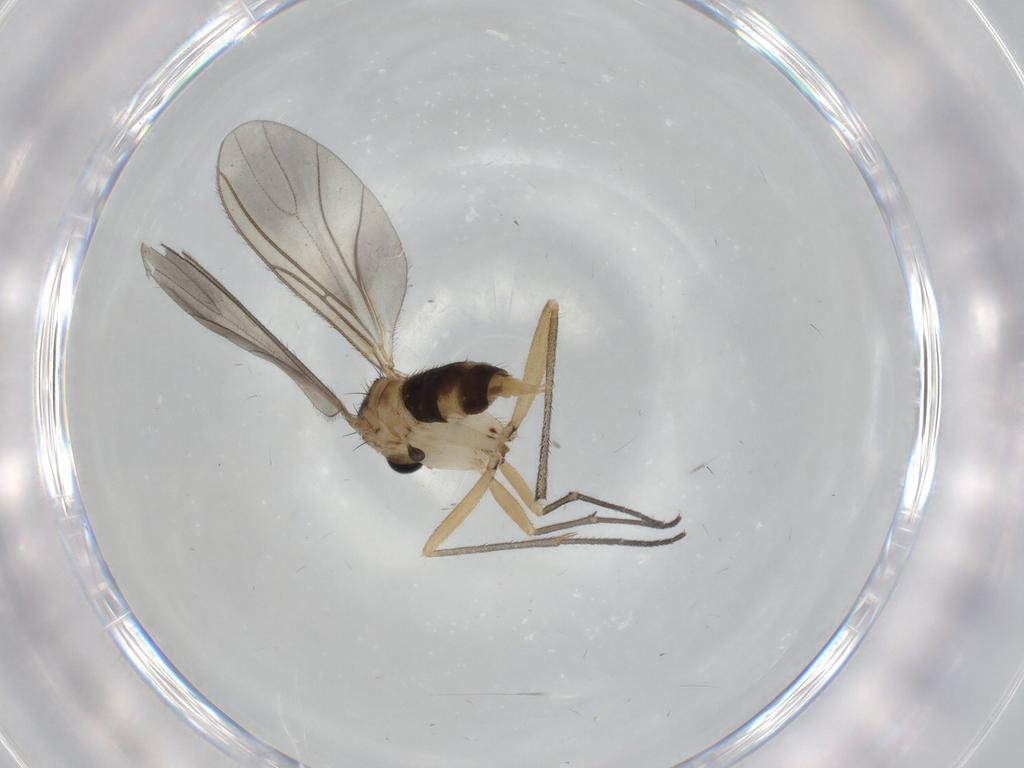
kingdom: Animalia
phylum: Arthropoda
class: Insecta
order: Diptera
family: Sciaridae
